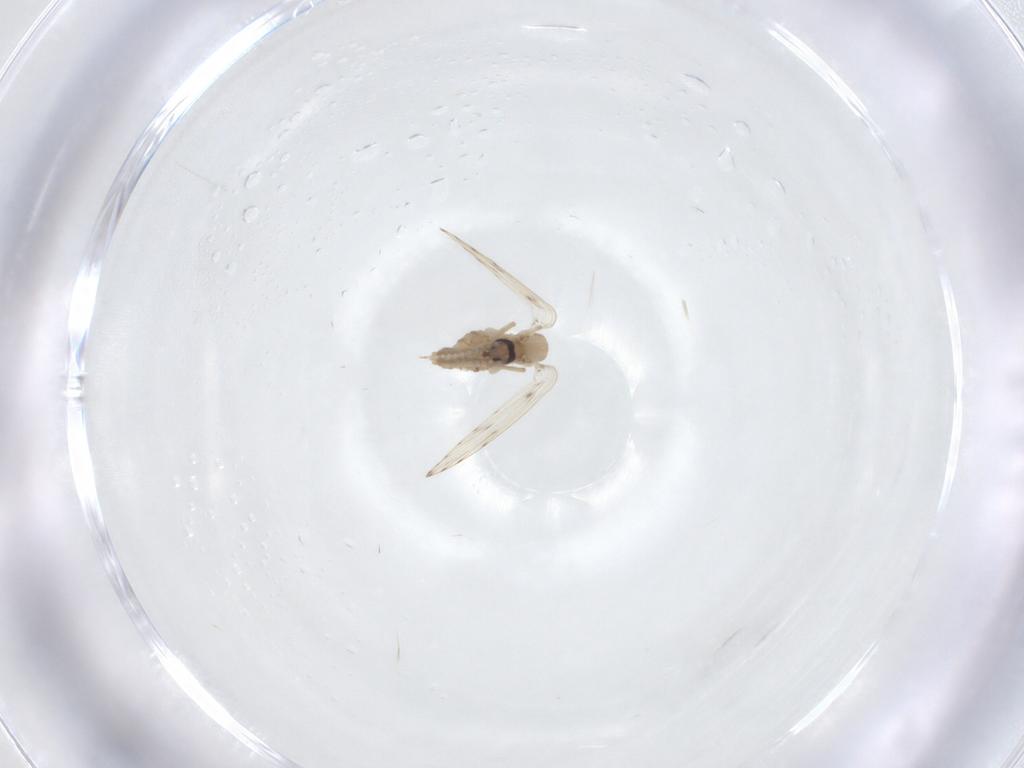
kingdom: Animalia
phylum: Arthropoda
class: Insecta
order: Diptera
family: Psychodidae
